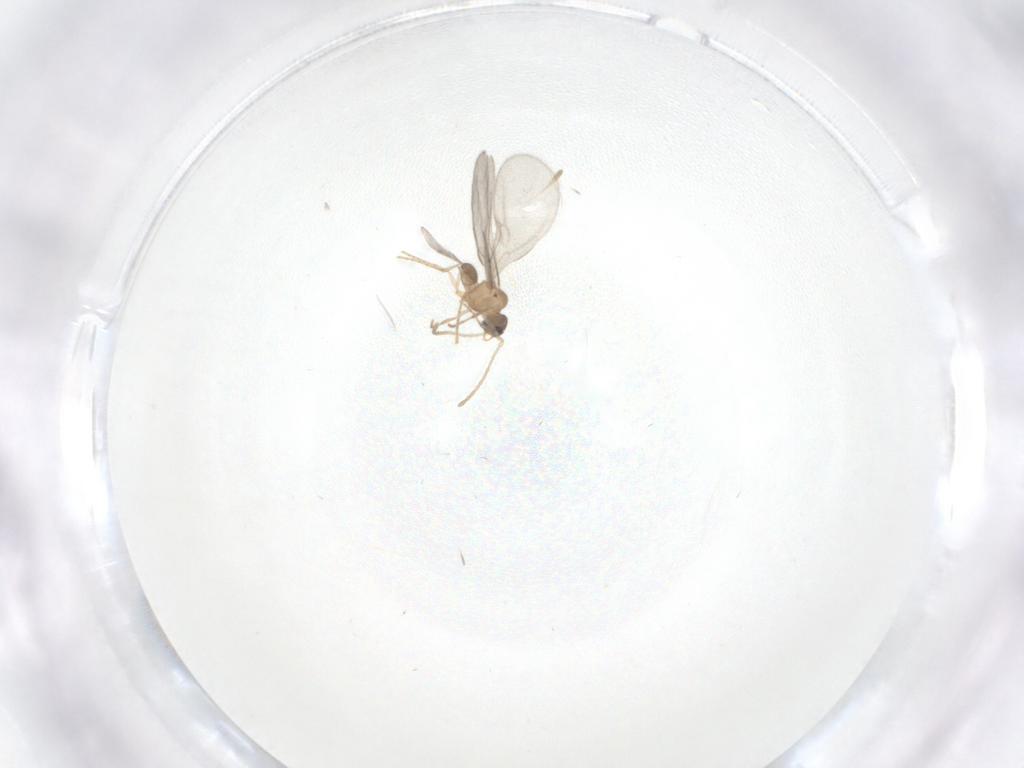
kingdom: Animalia
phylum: Arthropoda
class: Insecta
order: Hymenoptera
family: Formicidae
